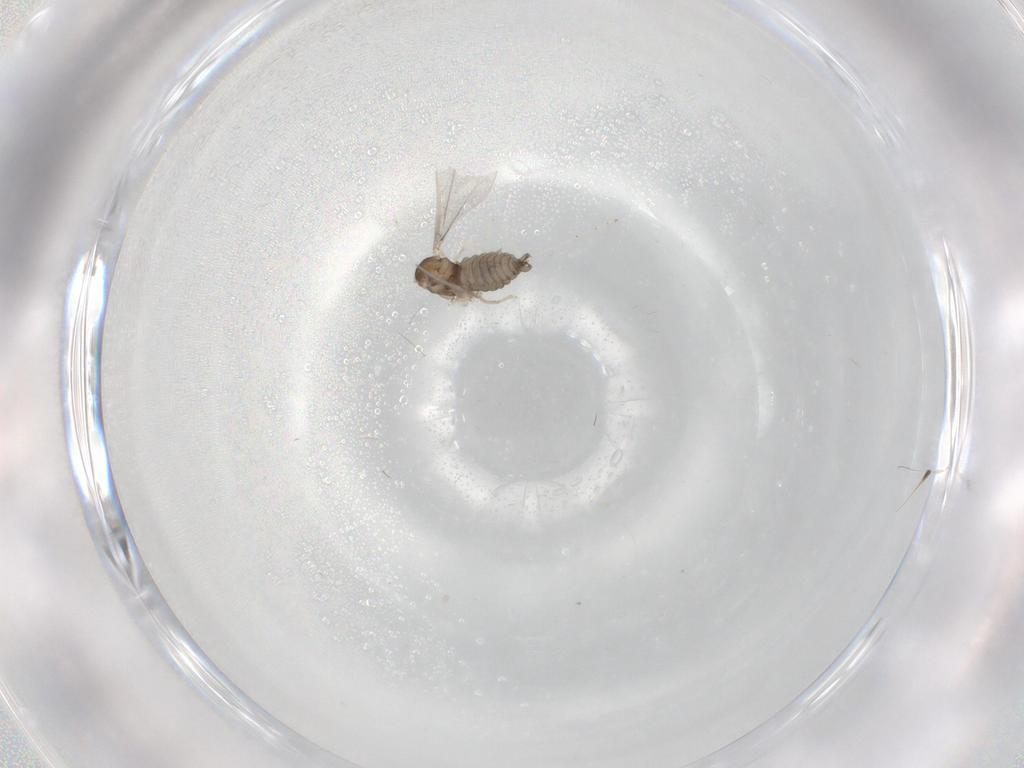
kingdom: Animalia
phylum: Arthropoda
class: Insecta
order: Diptera
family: Cecidomyiidae
